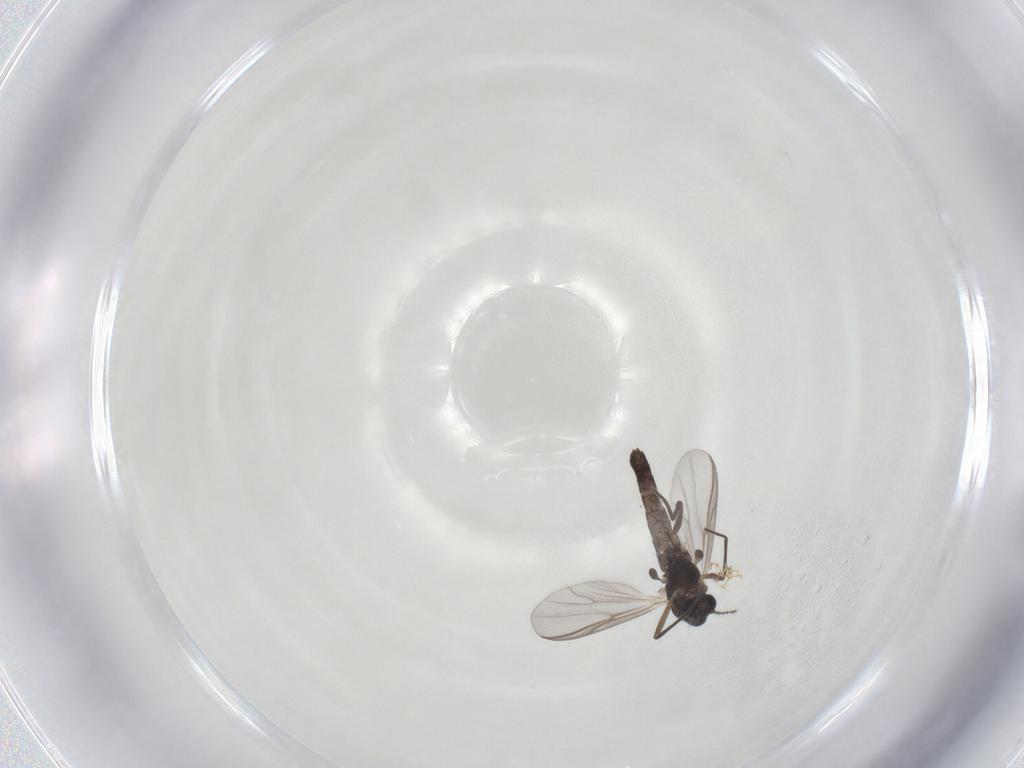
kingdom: Animalia
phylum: Arthropoda
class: Insecta
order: Diptera
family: Chironomidae
